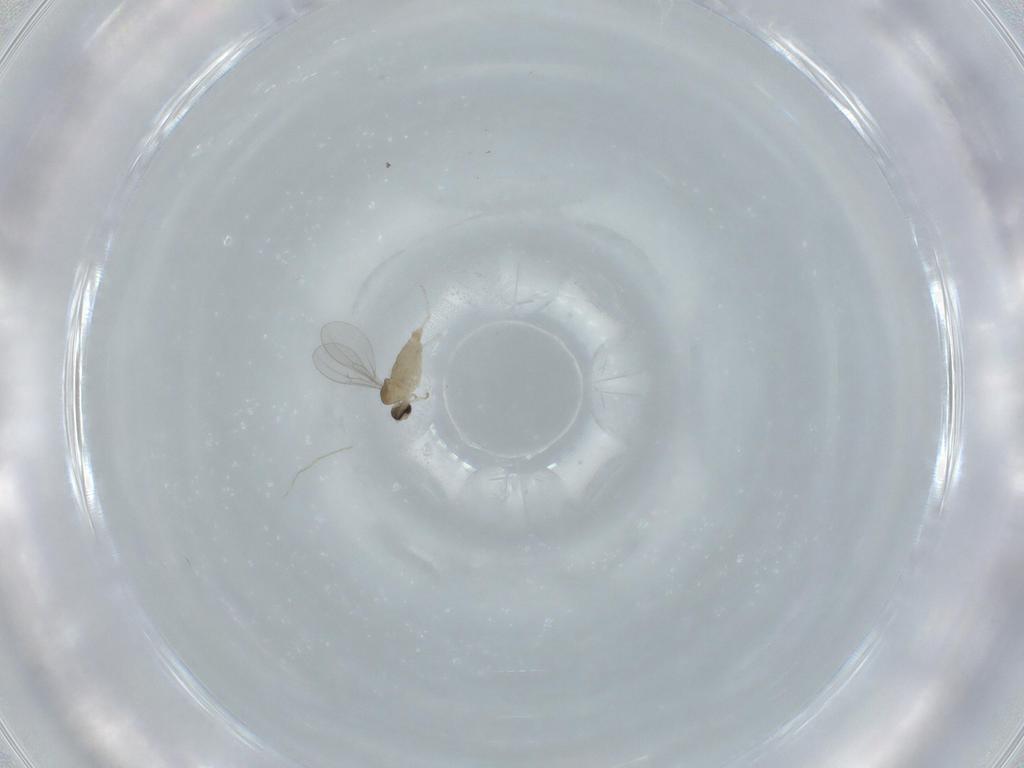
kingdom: Animalia
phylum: Arthropoda
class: Insecta
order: Diptera
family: Cecidomyiidae
